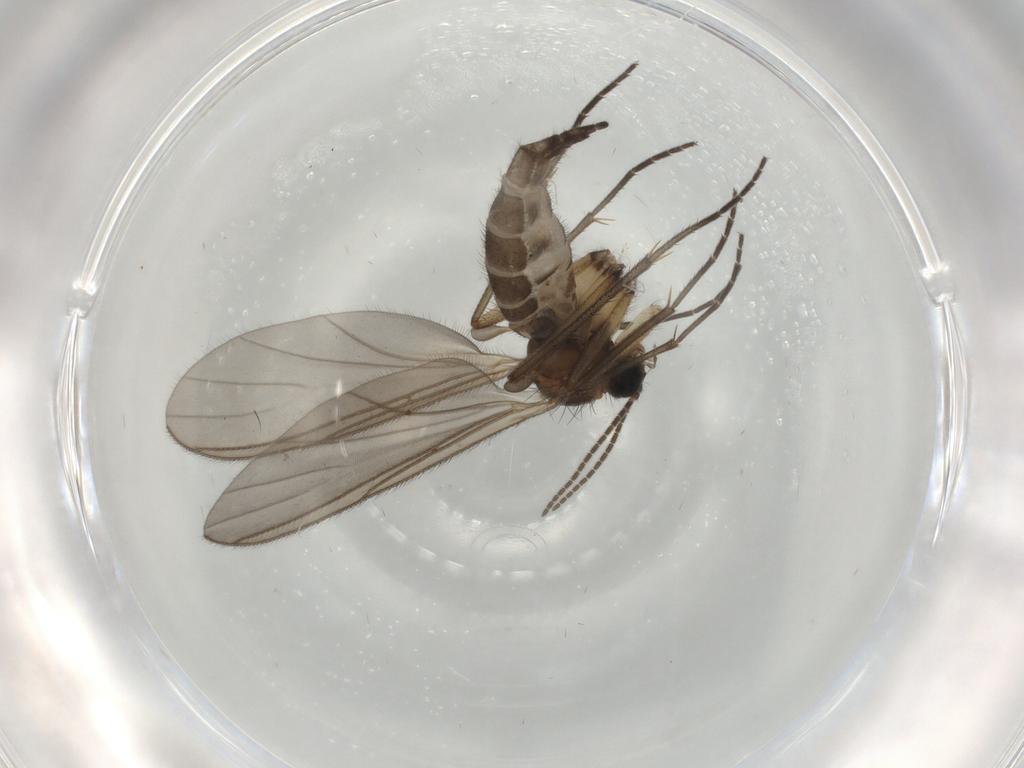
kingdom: Animalia
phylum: Arthropoda
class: Insecta
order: Diptera
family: Sciaridae
